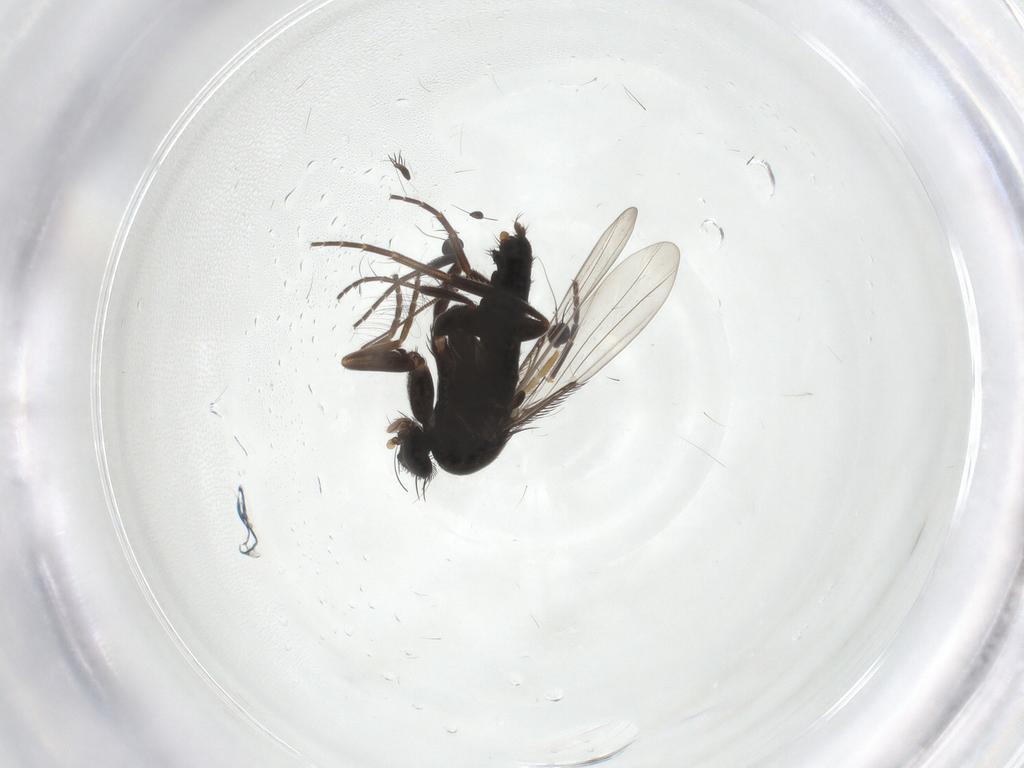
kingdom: Animalia
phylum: Arthropoda
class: Insecta
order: Diptera
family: Phoridae
